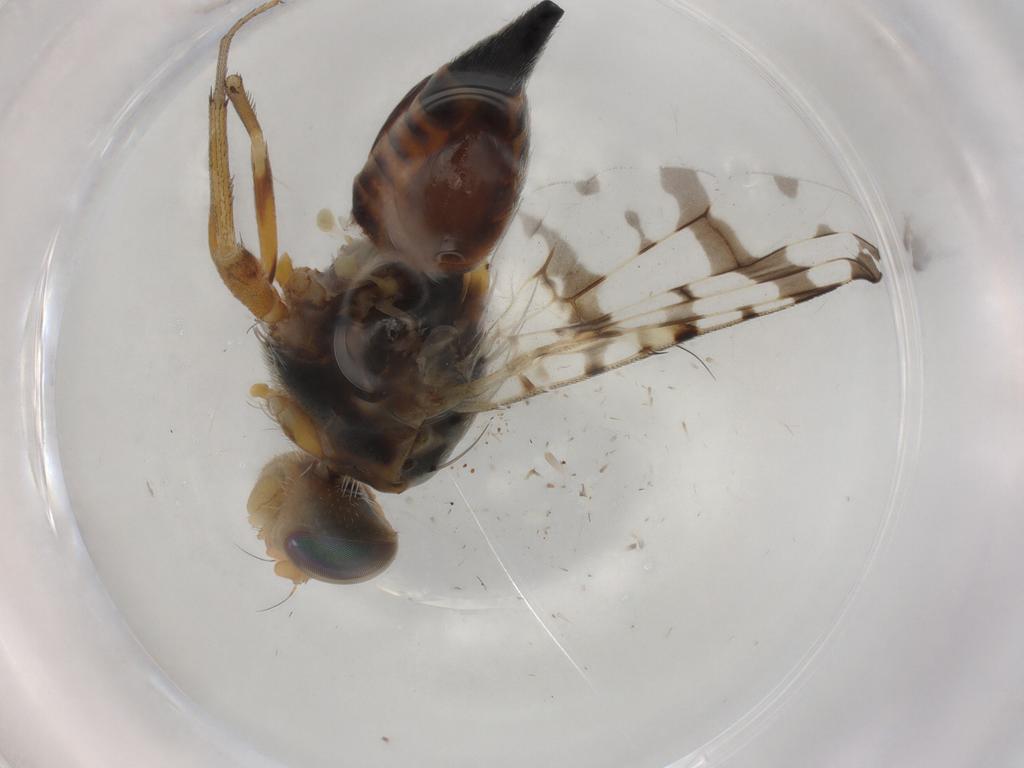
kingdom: Animalia
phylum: Arthropoda
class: Insecta
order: Diptera
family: Tephritidae
